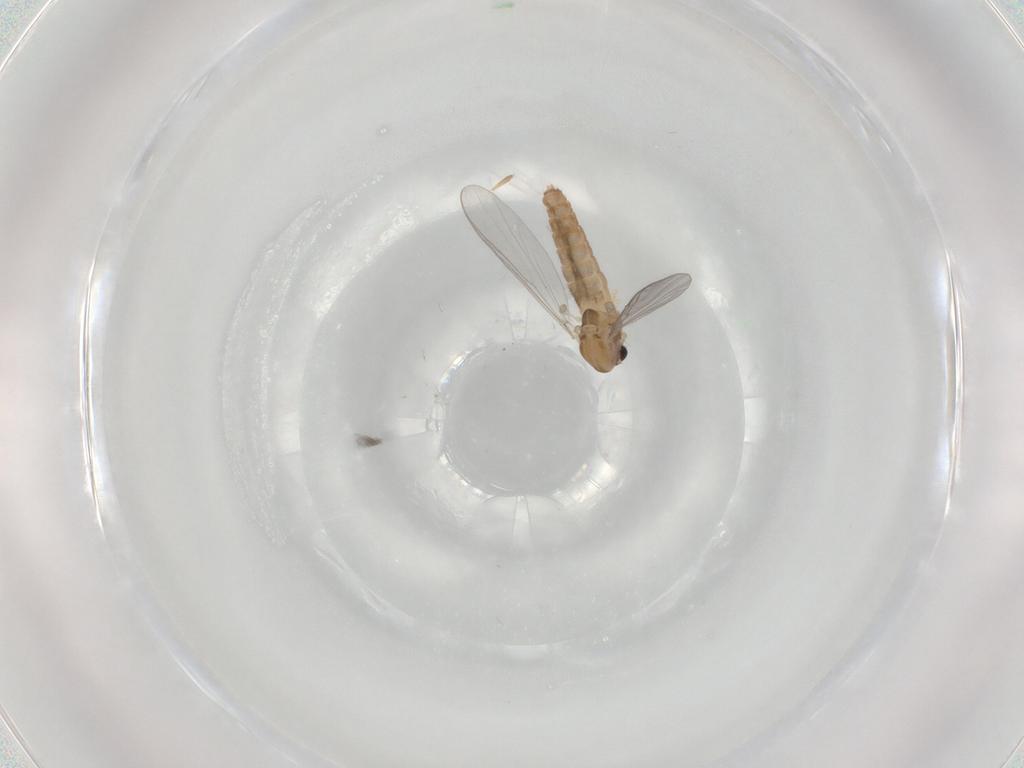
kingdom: Animalia
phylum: Arthropoda
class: Insecta
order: Diptera
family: Chironomidae
